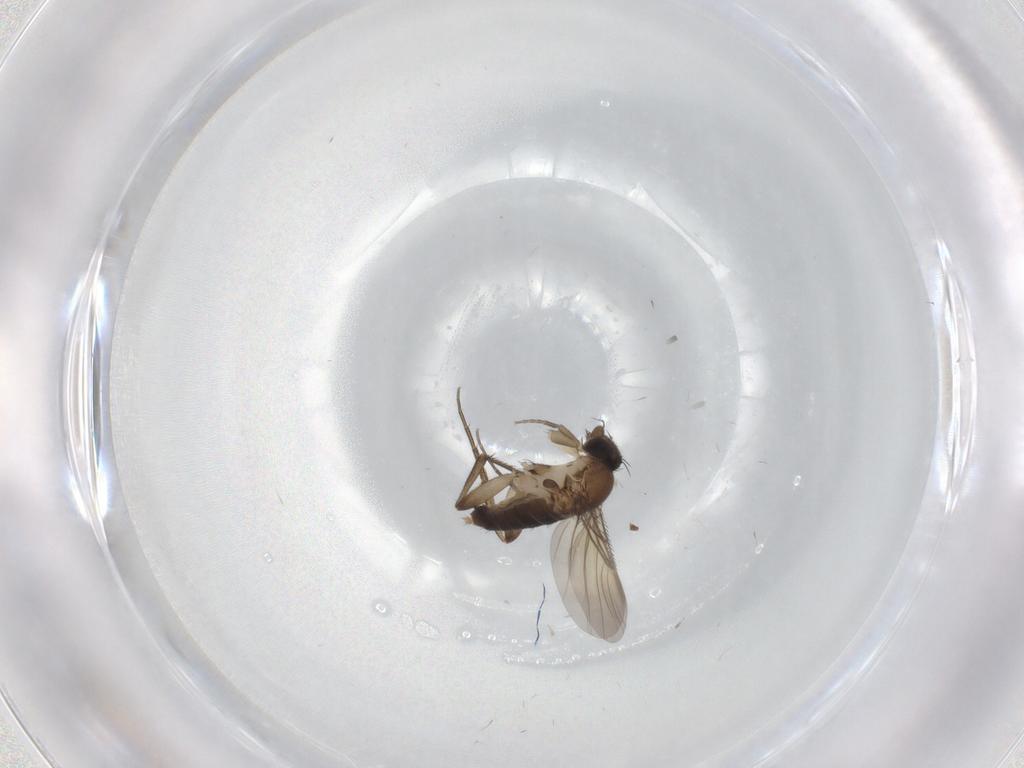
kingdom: Animalia
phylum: Arthropoda
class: Insecta
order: Diptera
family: Phoridae
